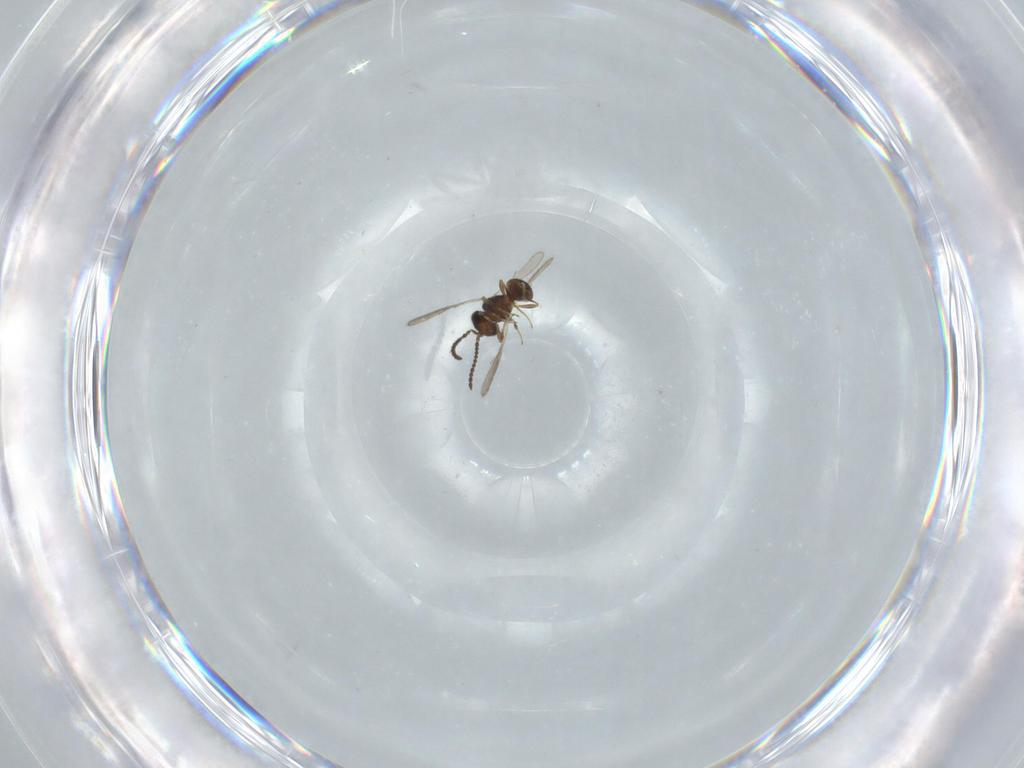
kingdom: Animalia
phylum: Arthropoda
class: Insecta
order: Hymenoptera
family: Scelionidae
